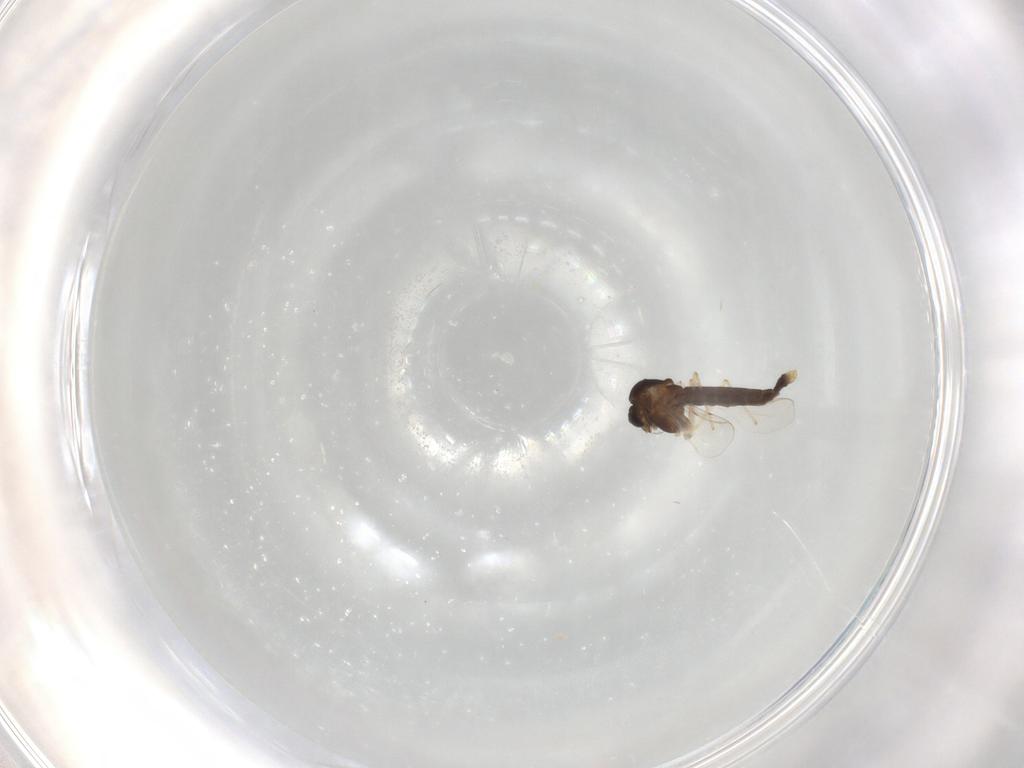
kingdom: Animalia
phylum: Arthropoda
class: Insecta
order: Diptera
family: Chironomidae
